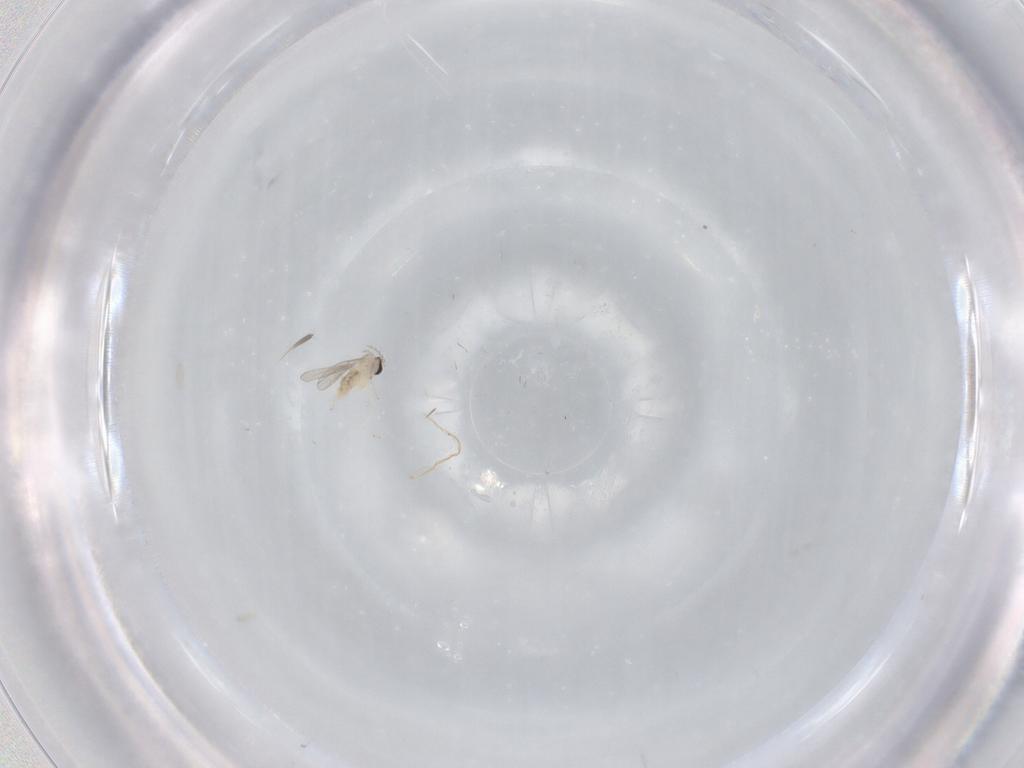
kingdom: Animalia
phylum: Arthropoda
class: Insecta
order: Diptera
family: Cecidomyiidae
